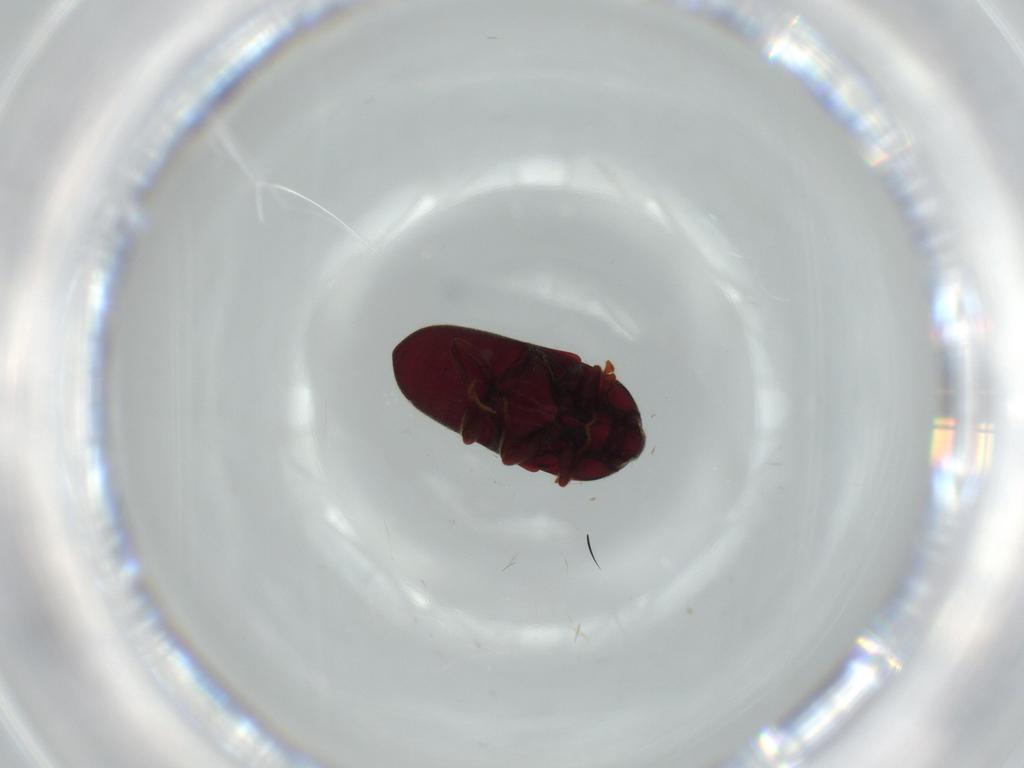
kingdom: Animalia
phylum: Arthropoda
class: Insecta
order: Coleoptera
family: Throscidae
